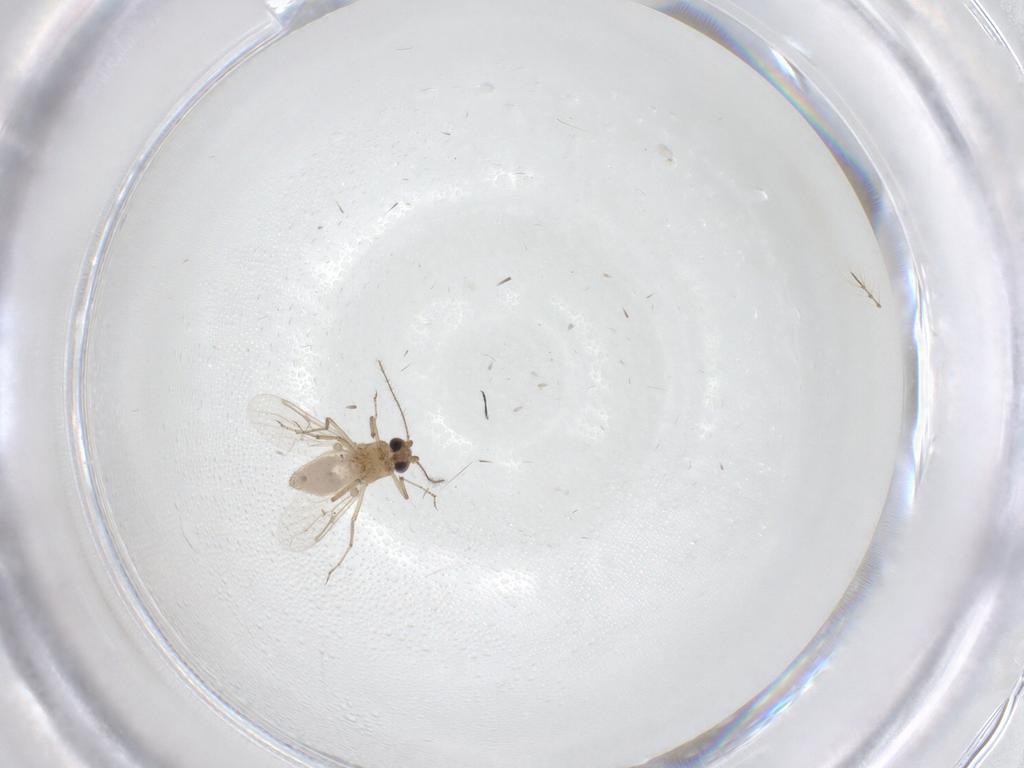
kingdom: Animalia
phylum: Arthropoda
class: Insecta
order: Diptera
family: Ceratopogonidae
